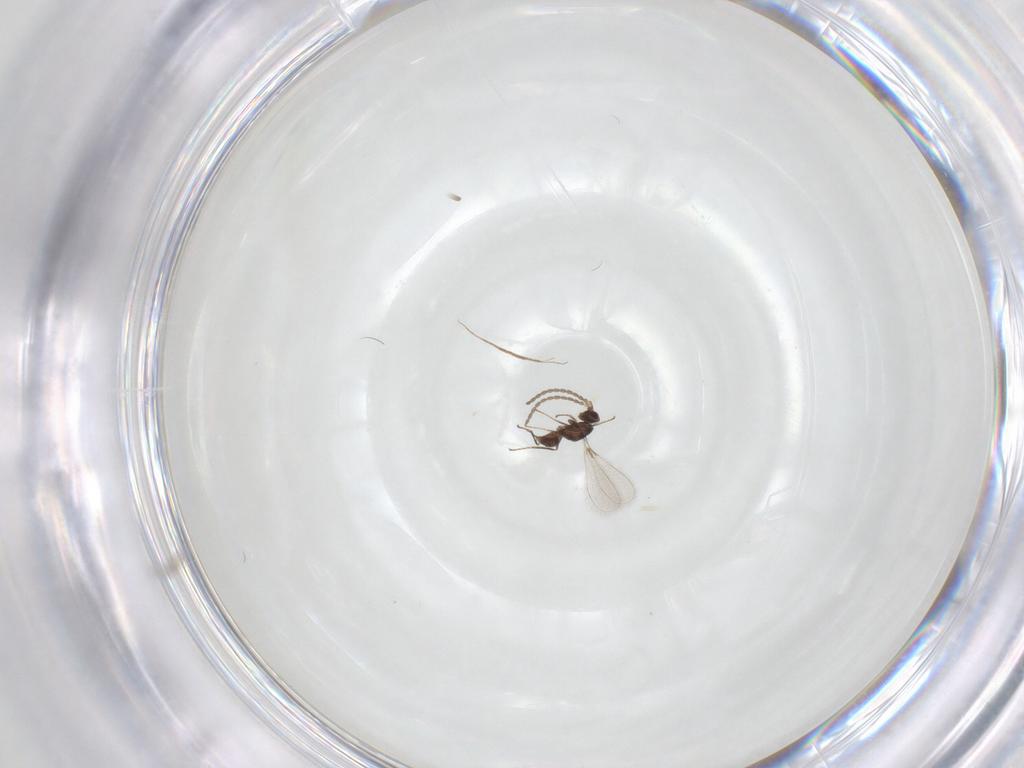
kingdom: Animalia
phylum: Arthropoda
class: Insecta
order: Hymenoptera
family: Mymaridae
